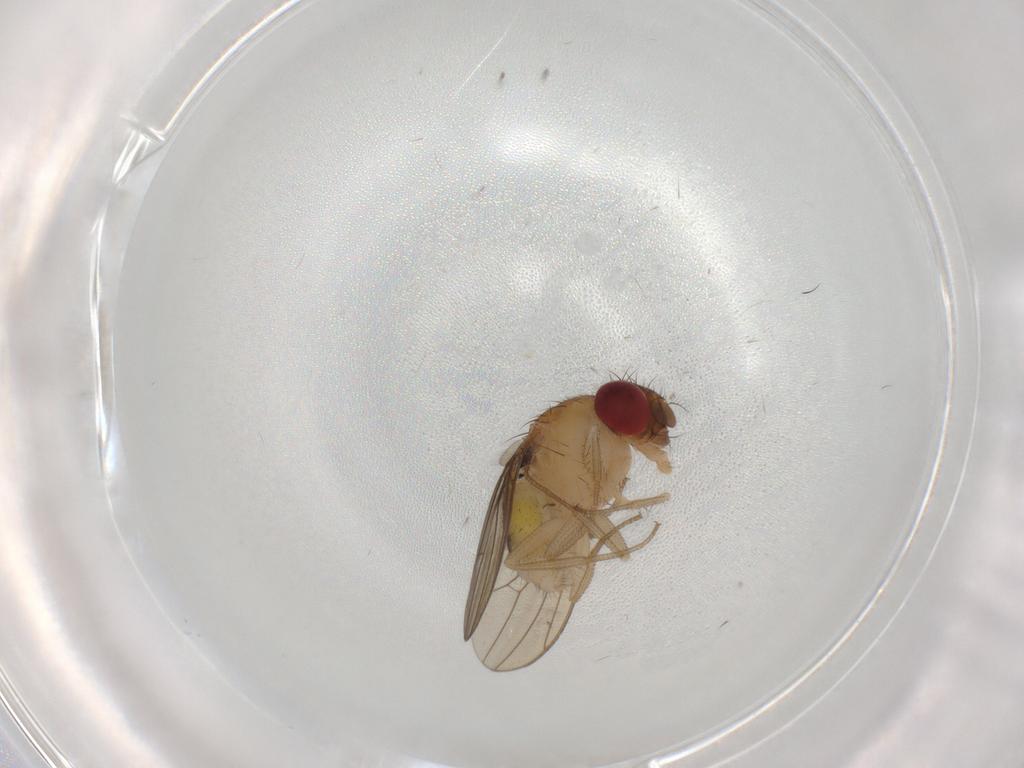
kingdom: Animalia
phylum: Arthropoda
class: Insecta
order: Diptera
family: Drosophilidae
